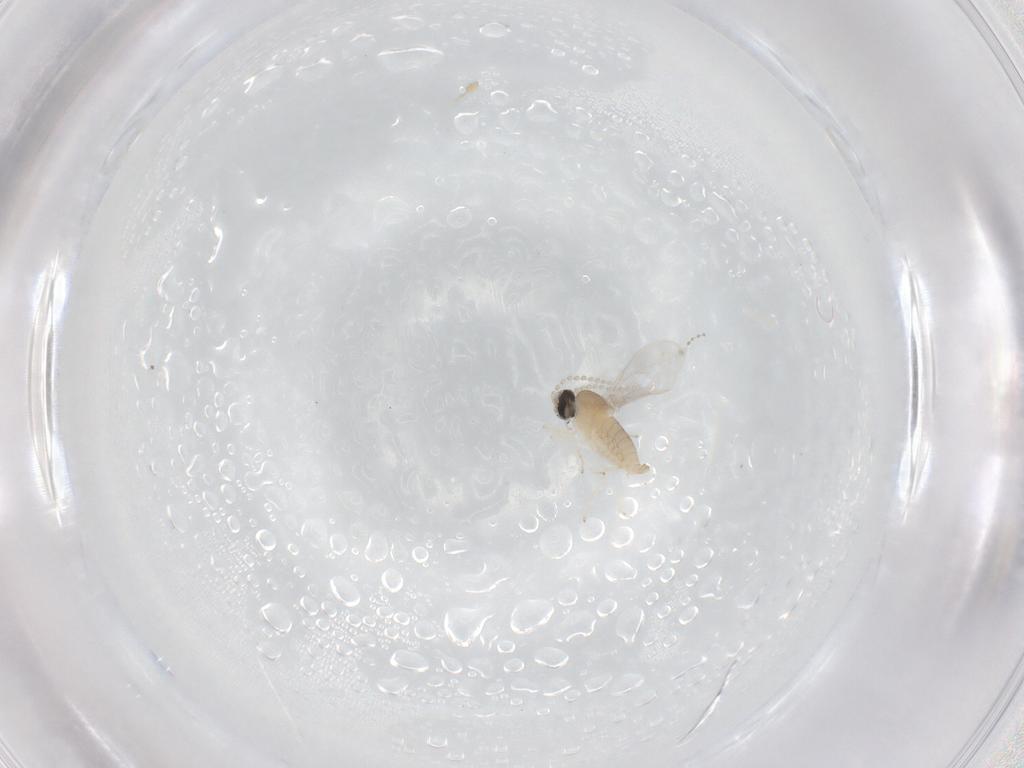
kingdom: Animalia
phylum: Arthropoda
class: Insecta
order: Diptera
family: Cecidomyiidae
